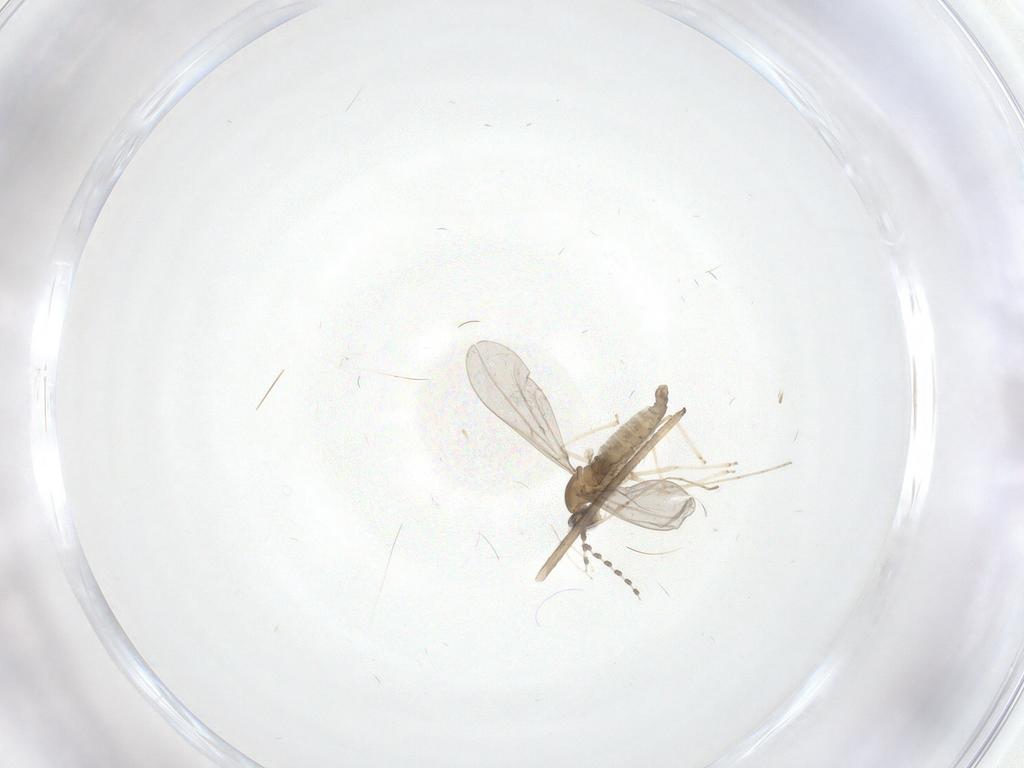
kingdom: Animalia
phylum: Arthropoda
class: Insecta
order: Diptera
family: Limoniidae
